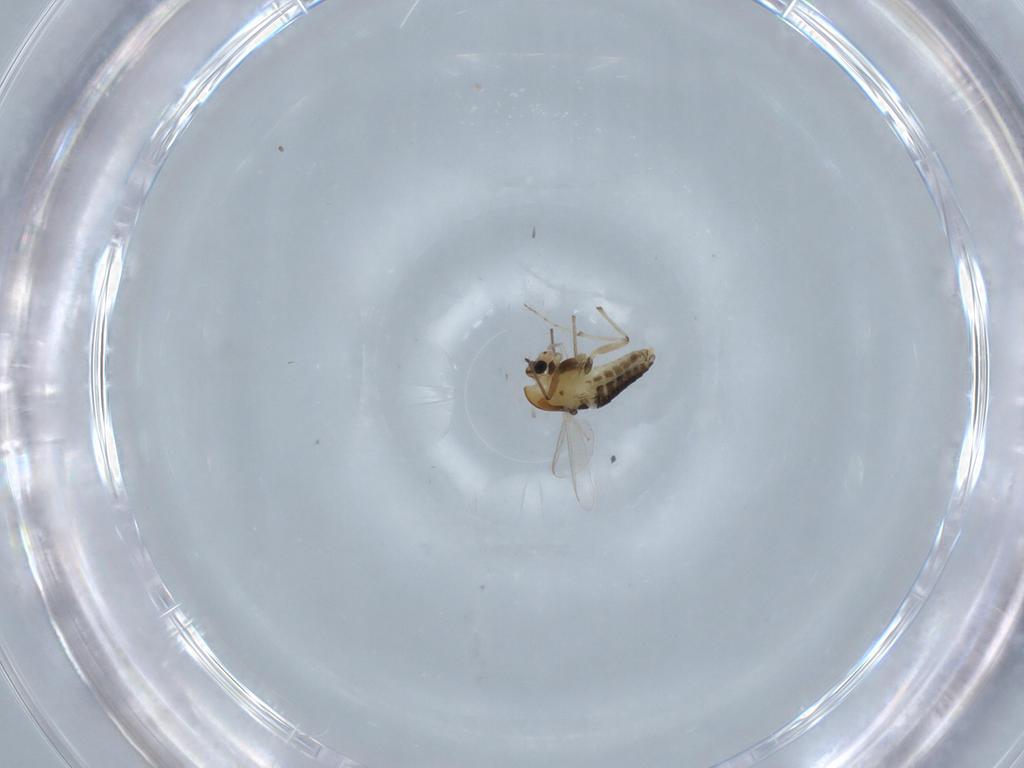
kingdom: Animalia
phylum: Arthropoda
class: Insecta
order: Diptera
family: Chironomidae
